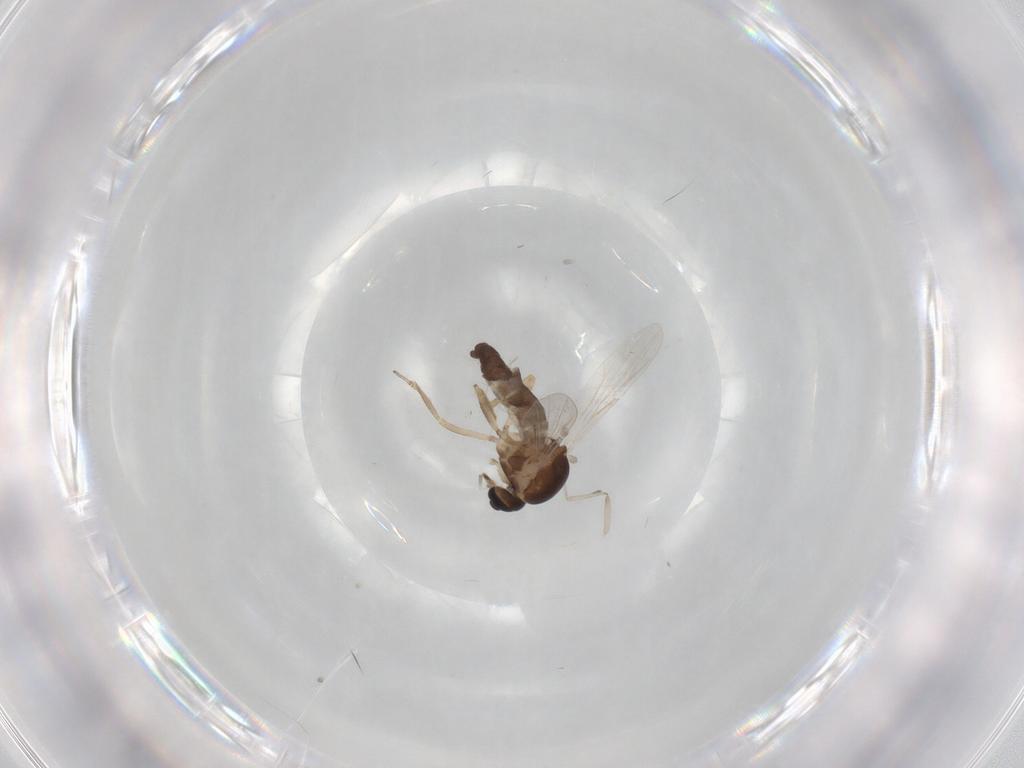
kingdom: Animalia
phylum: Arthropoda
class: Insecta
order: Diptera
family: Ceratopogonidae
